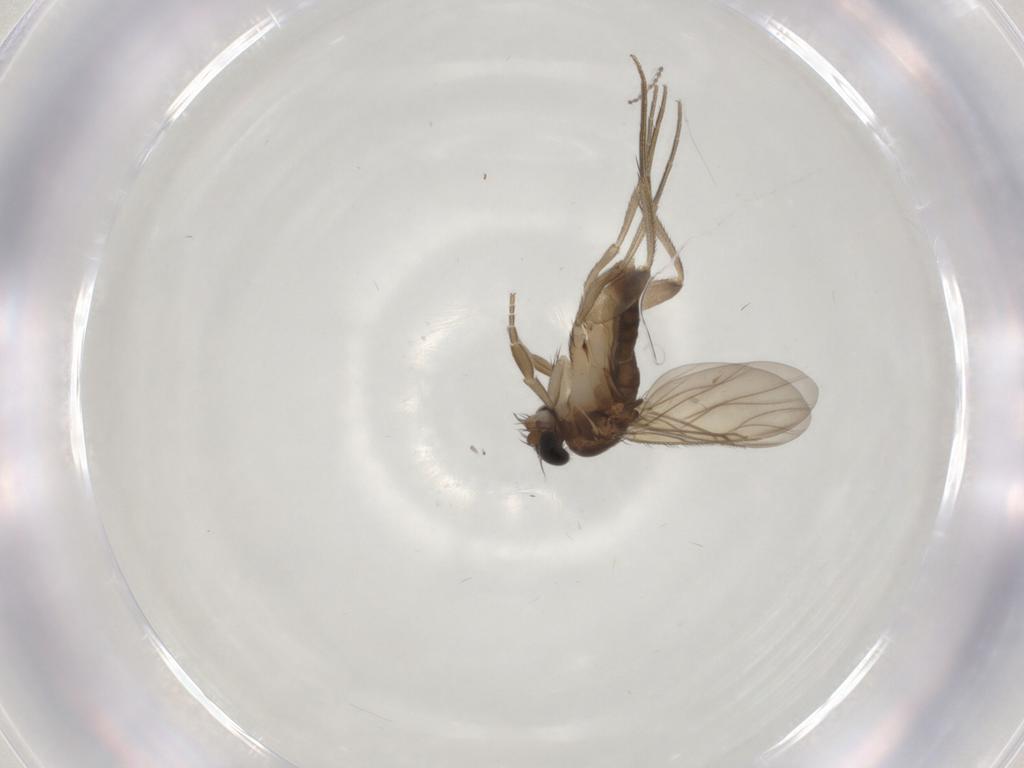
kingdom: Animalia
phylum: Arthropoda
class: Insecta
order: Diptera
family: Phoridae
